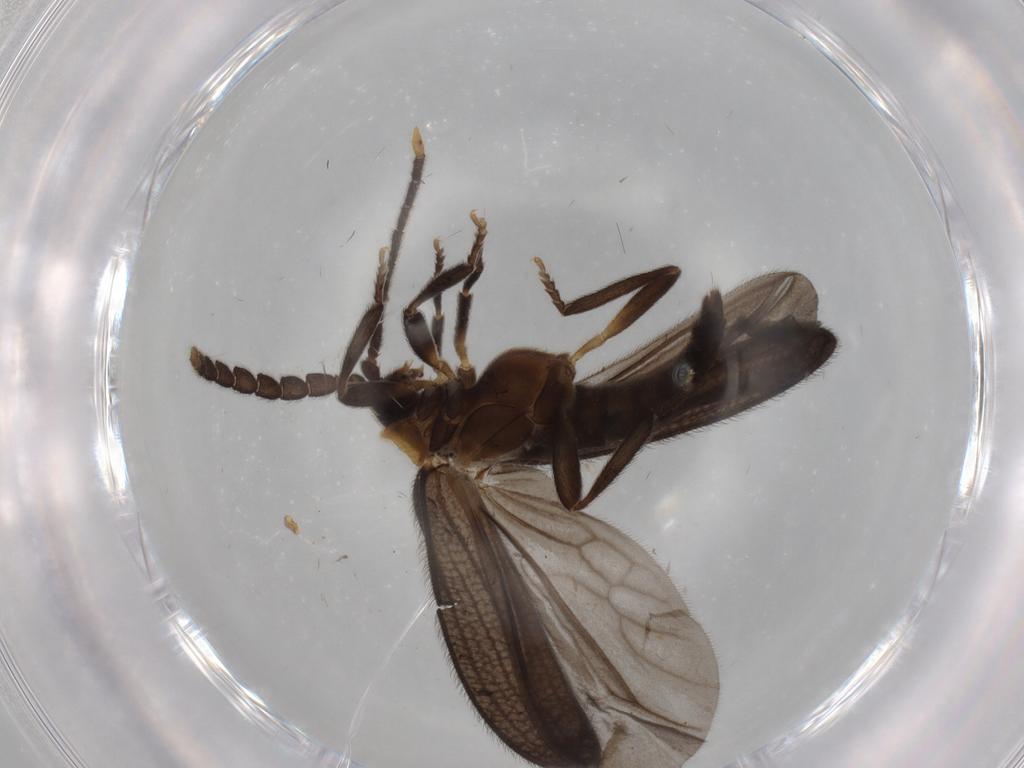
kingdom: Animalia
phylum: Arthropoda
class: Insecta
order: Coleoptera
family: Lycidae
